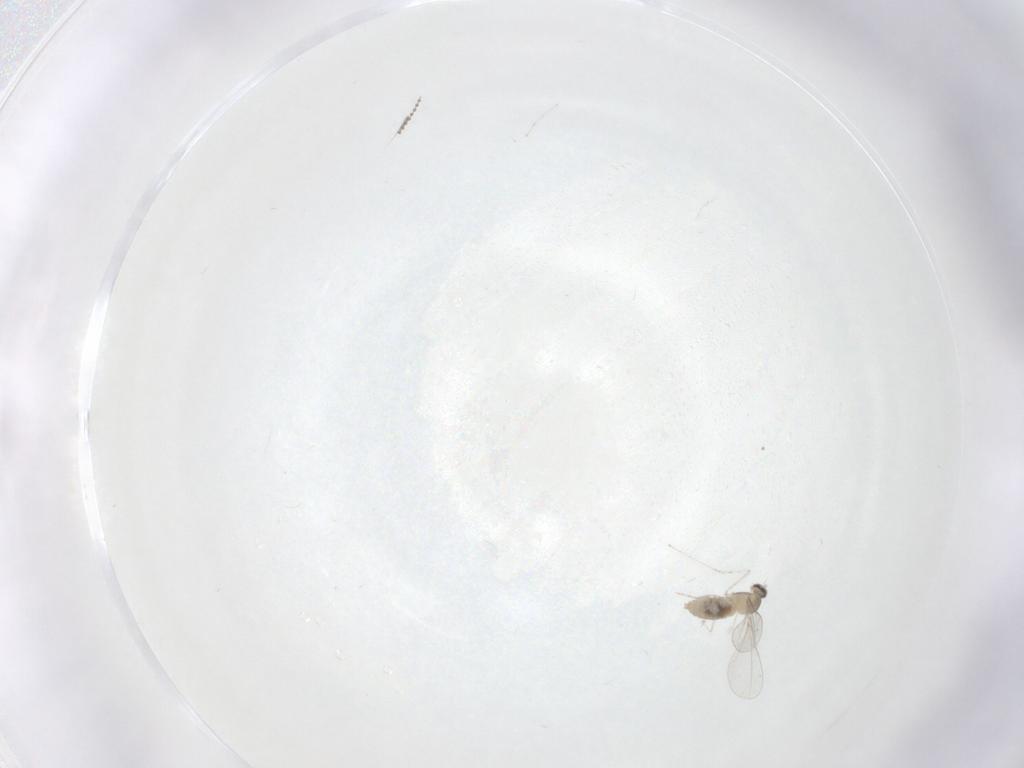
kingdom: Animalia
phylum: Arthropoda
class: Insecta
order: Diptera
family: Cecidomyiidae
